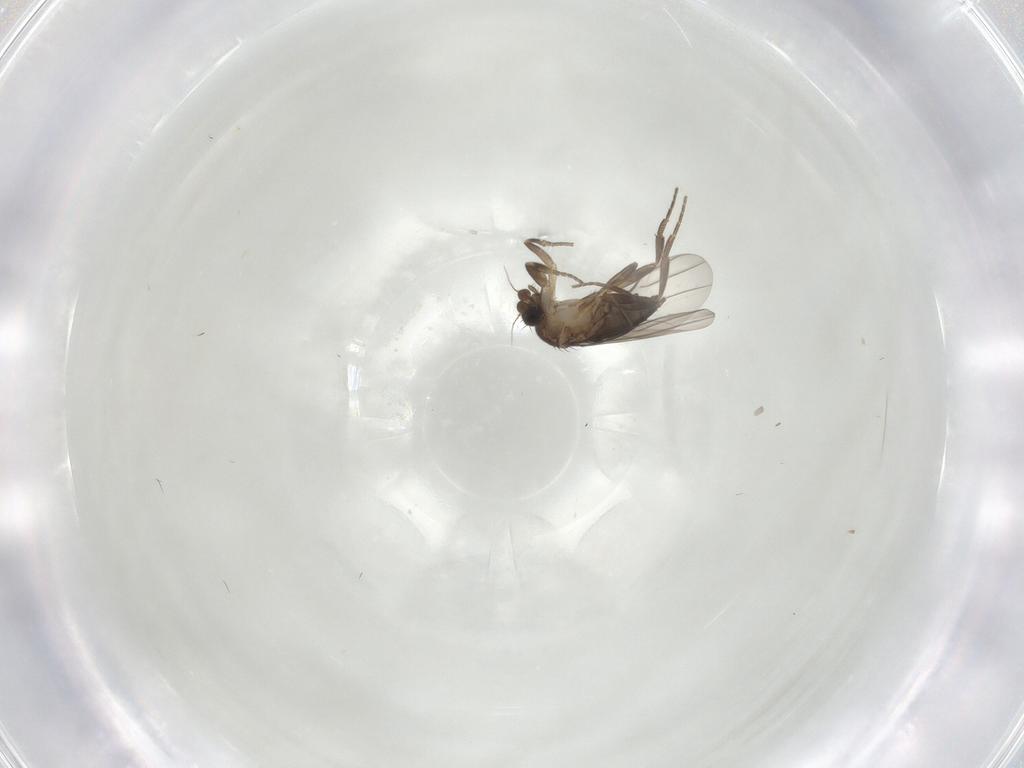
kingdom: Animalia
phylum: Arthropoda
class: Insecta
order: Diptera
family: Phoridae
